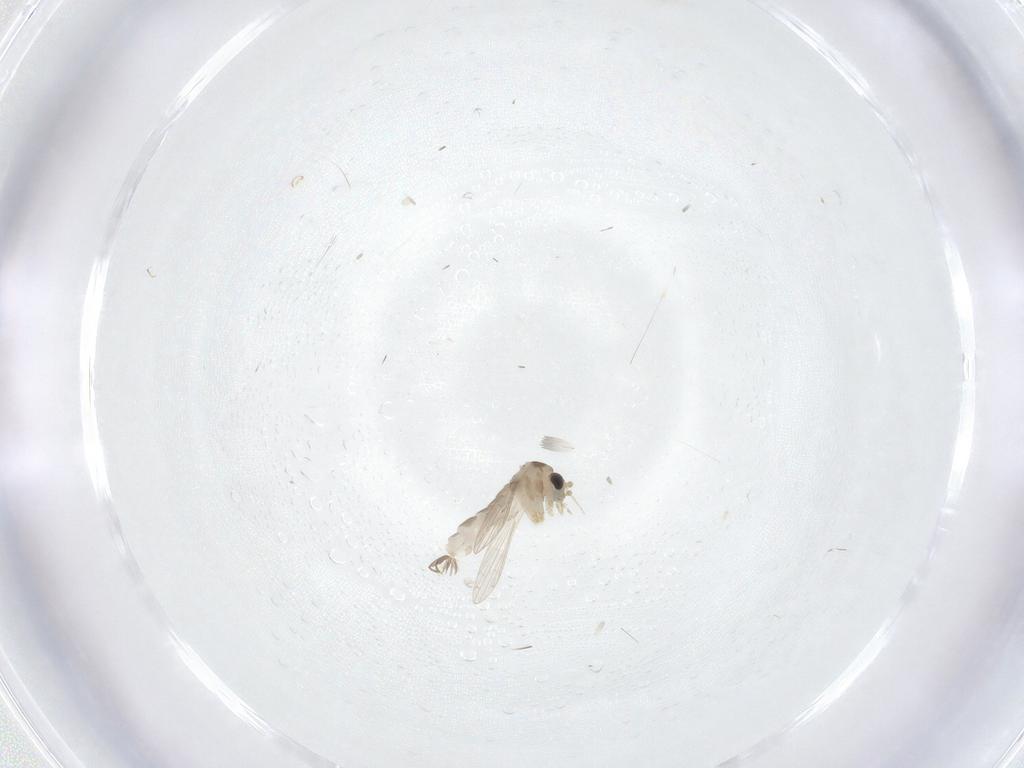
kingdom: Animalia
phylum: Arthropoda
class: Insecta
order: Diptera
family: Psychodidae
